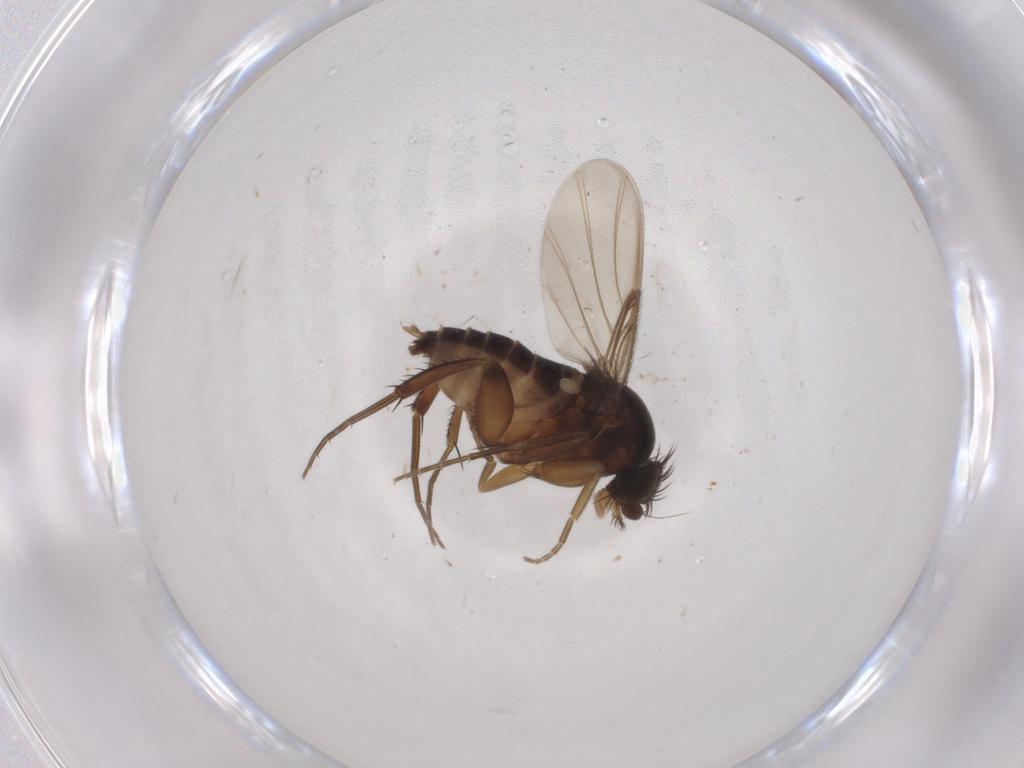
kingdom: Animalia
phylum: Arthropoda
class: Insecta
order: Diptera
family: Phoridae
